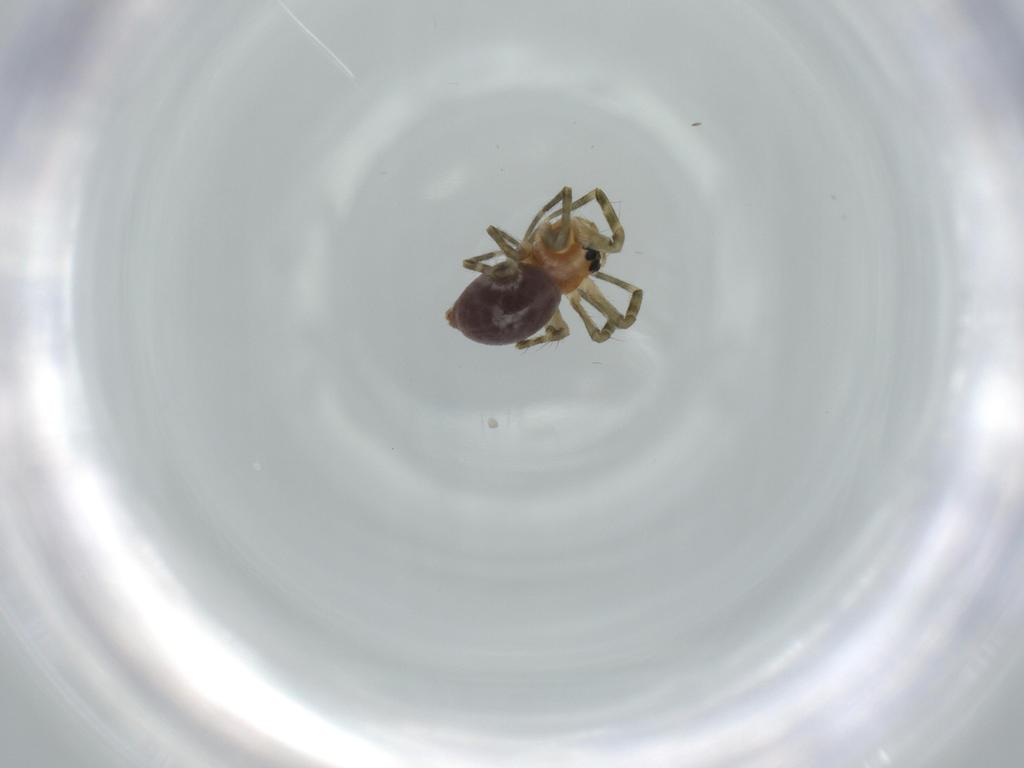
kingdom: Animalia
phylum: Arthropoda
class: Arachnida
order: Araneae
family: Linyphiidae
